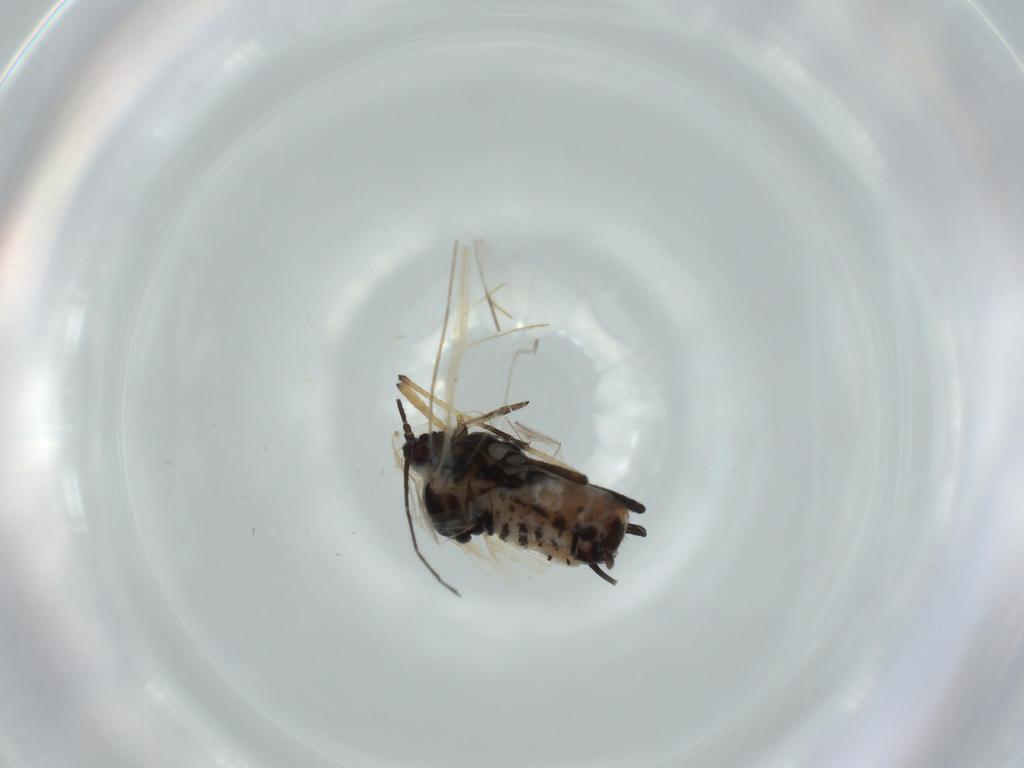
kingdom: Animalia
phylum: Arthropoda
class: Insecta
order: Hemiptera
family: Aphididae
